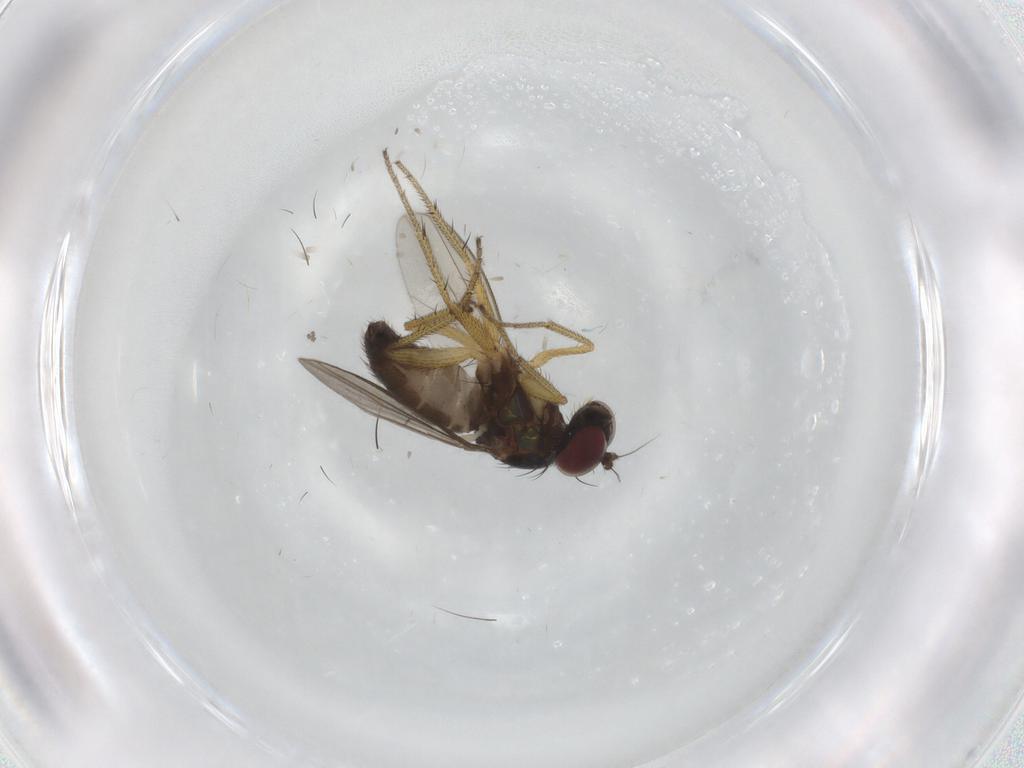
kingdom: Animalia
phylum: Arthropoda
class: Insecta
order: Diptera
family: Dolichopodidae
